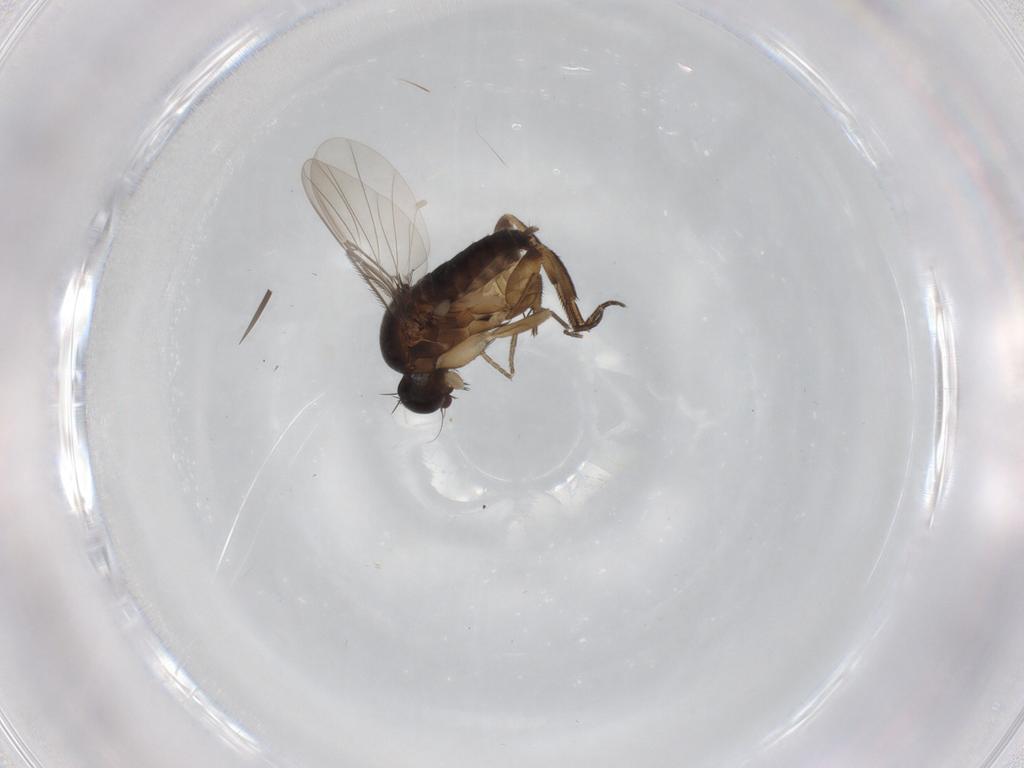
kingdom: Animalia
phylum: Arthropoda
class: Insecta
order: Diptera
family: Phoridae
